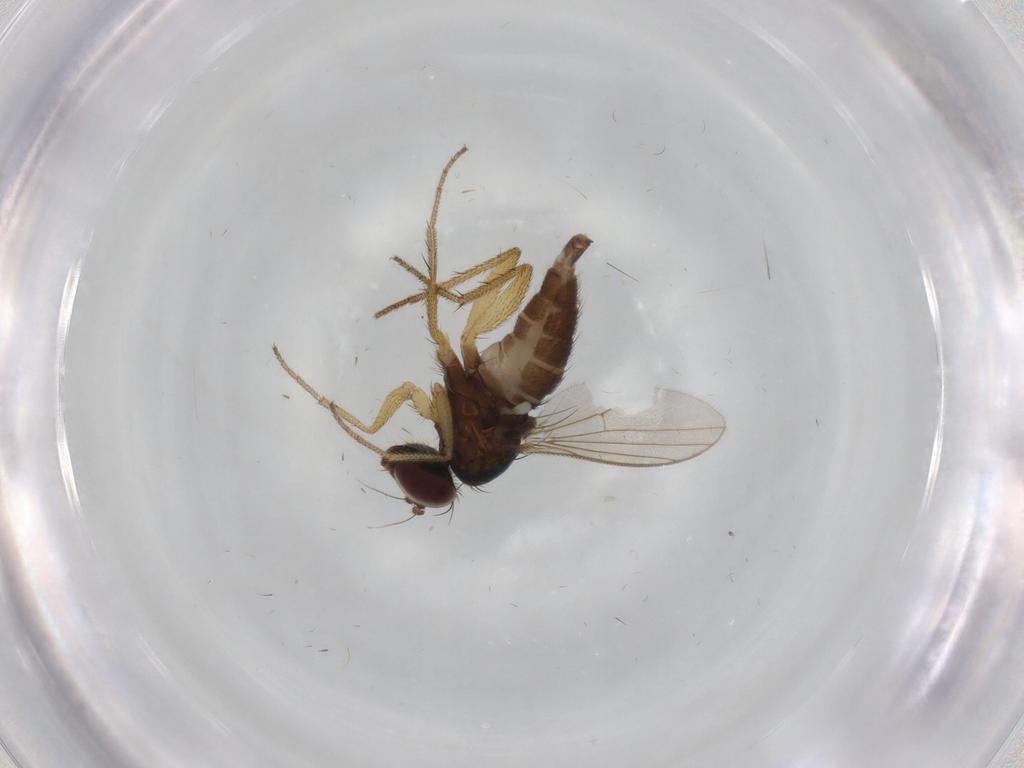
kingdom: Animalia
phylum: Arthropoda
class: Insecta
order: Diptera
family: Dolichopodidae
